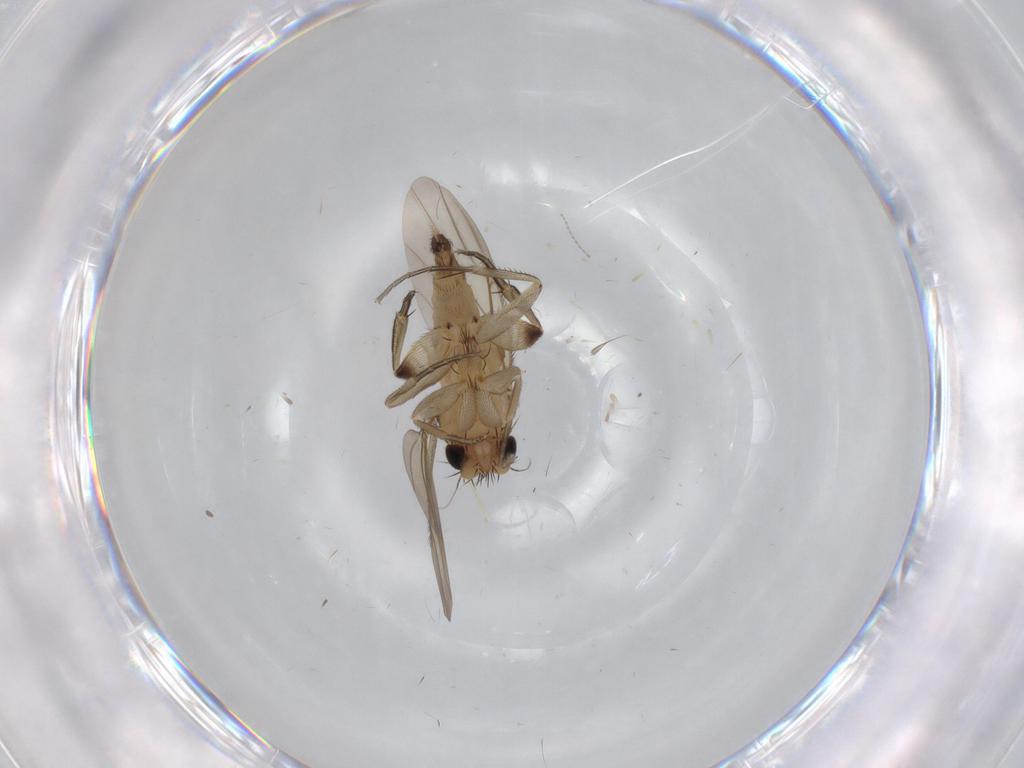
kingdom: Animalia
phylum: Arthropoda
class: Insecta
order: Diptera
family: Phoridae
